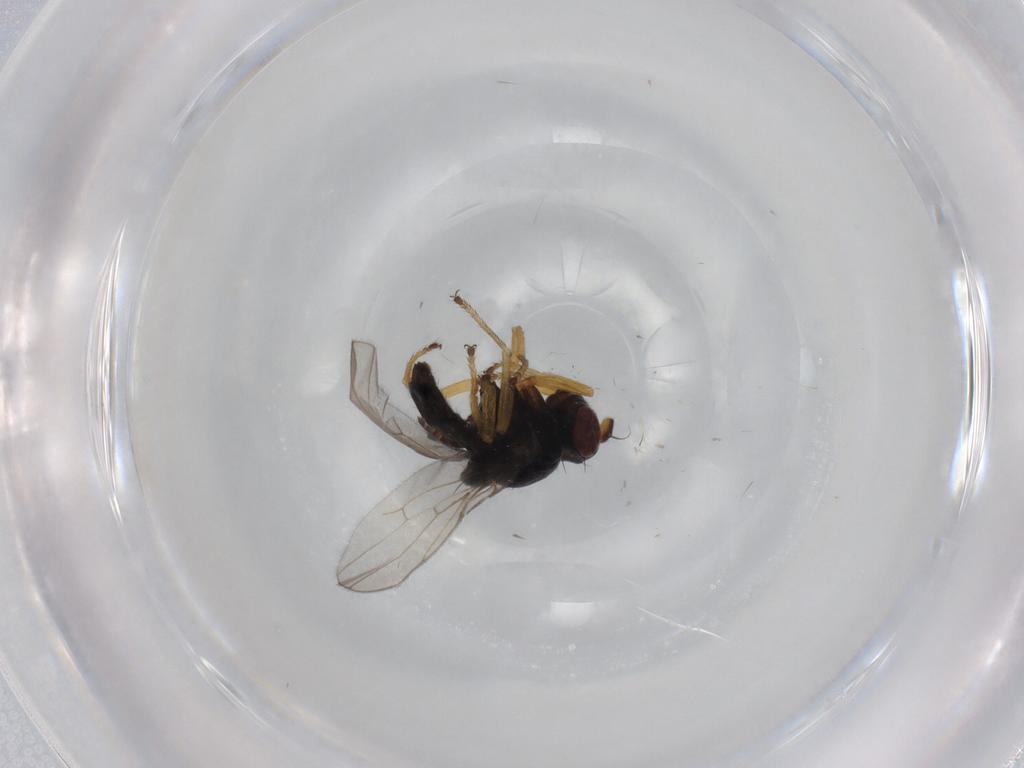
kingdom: Animalia
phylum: Arthropoda
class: Insecta
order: Diptera
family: Ephydridae
